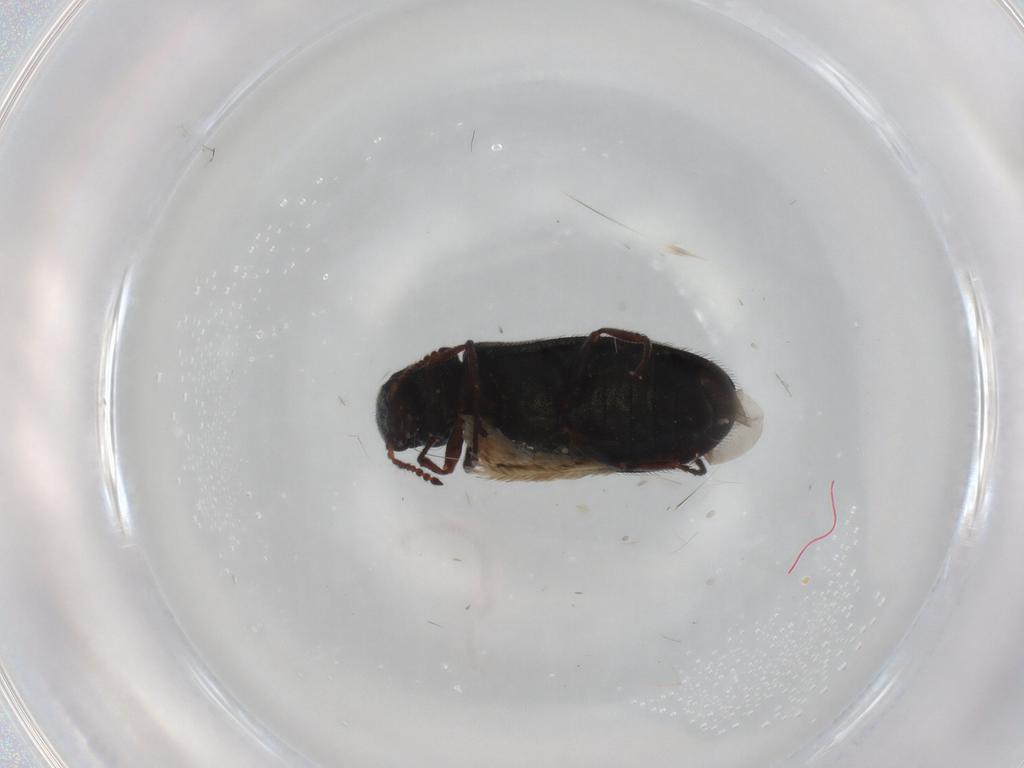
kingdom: Animalia
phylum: Arthropoda
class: Insecta
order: Coleoptera
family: Melyridae
